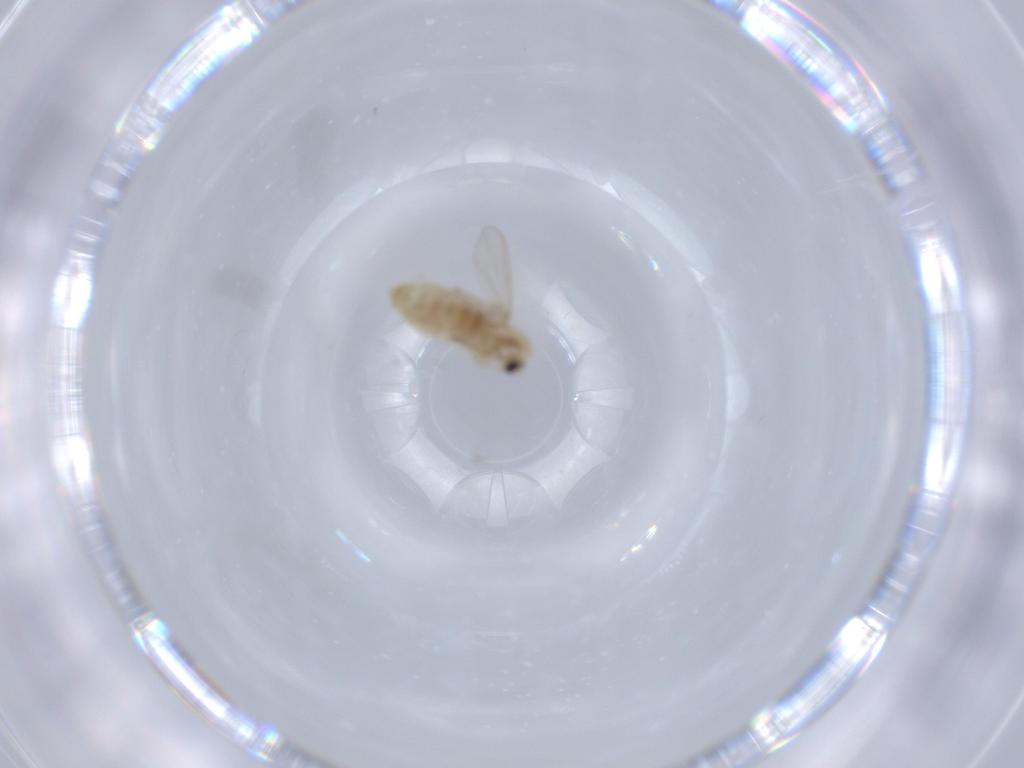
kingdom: Animalia
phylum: Arthropoda
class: Insecta
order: Diptera
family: Chironomidae
